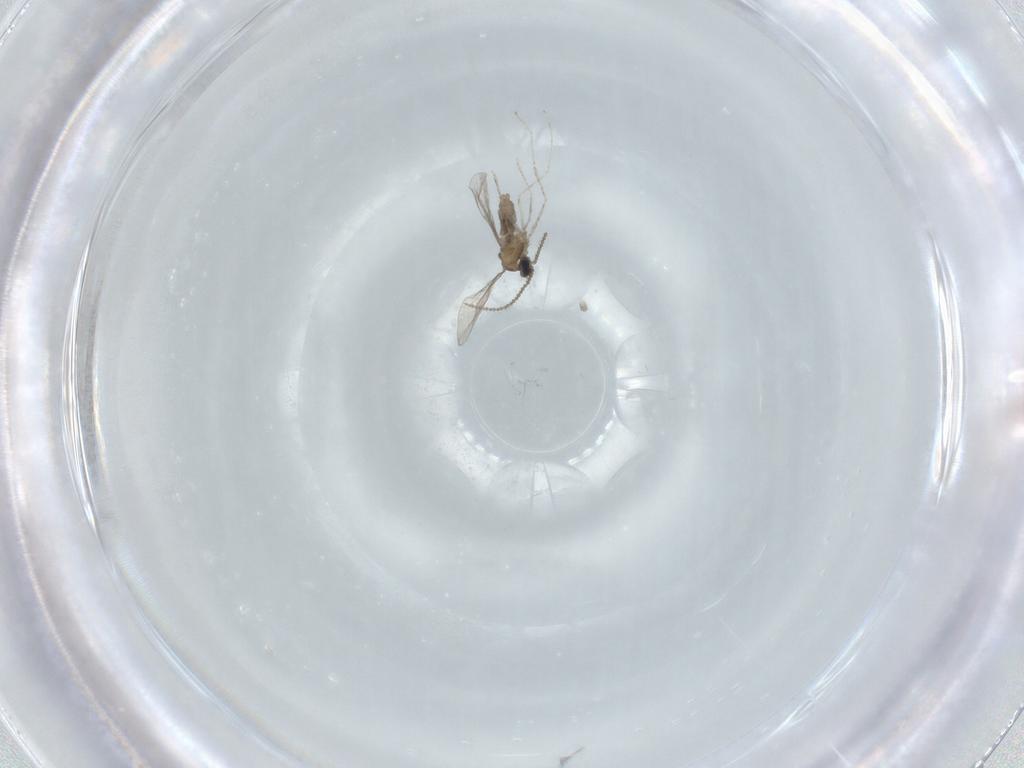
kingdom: Animalia
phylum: Arthropoda
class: Insecta
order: Diptera
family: Cecidomyiidae
